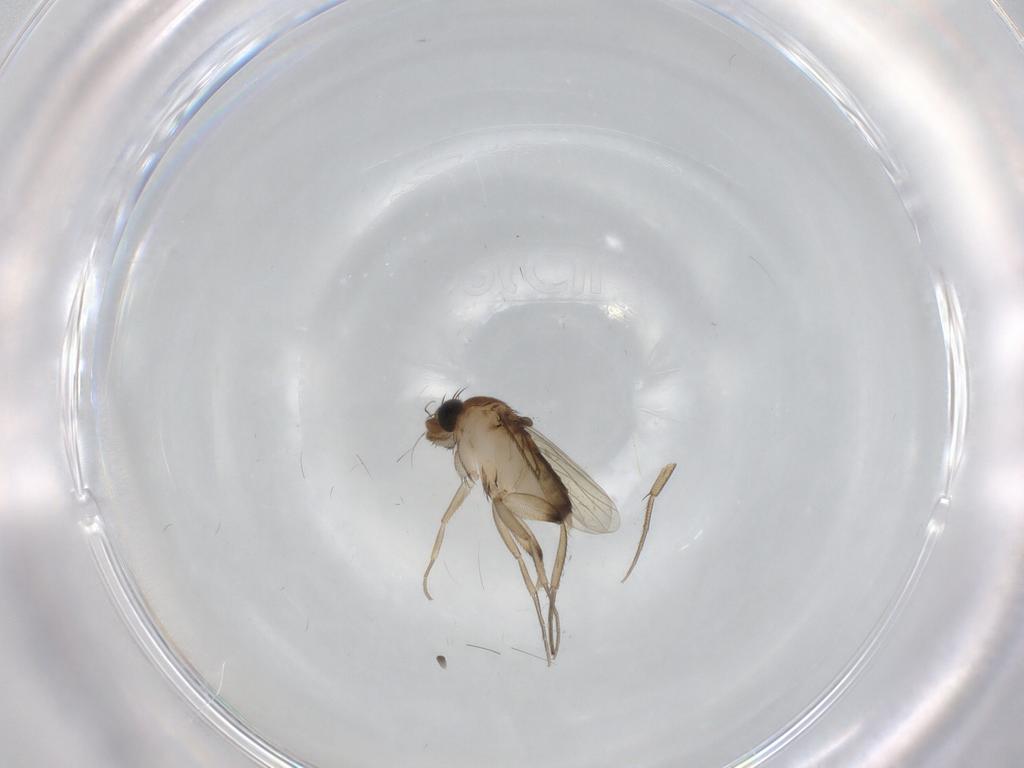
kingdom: Animalia
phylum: Arthropoda
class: Insecta
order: Diptera
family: Phoridae
